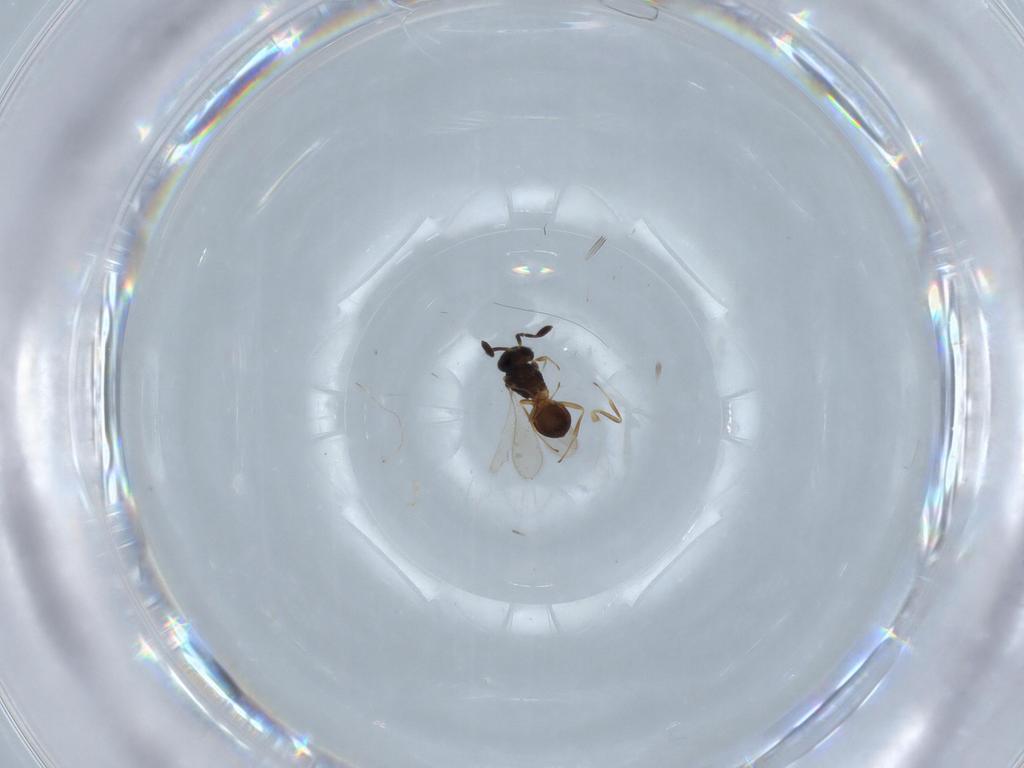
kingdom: Animalia
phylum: Arthropoda
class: Insecta
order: Hymenoptera
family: Scelionidae
